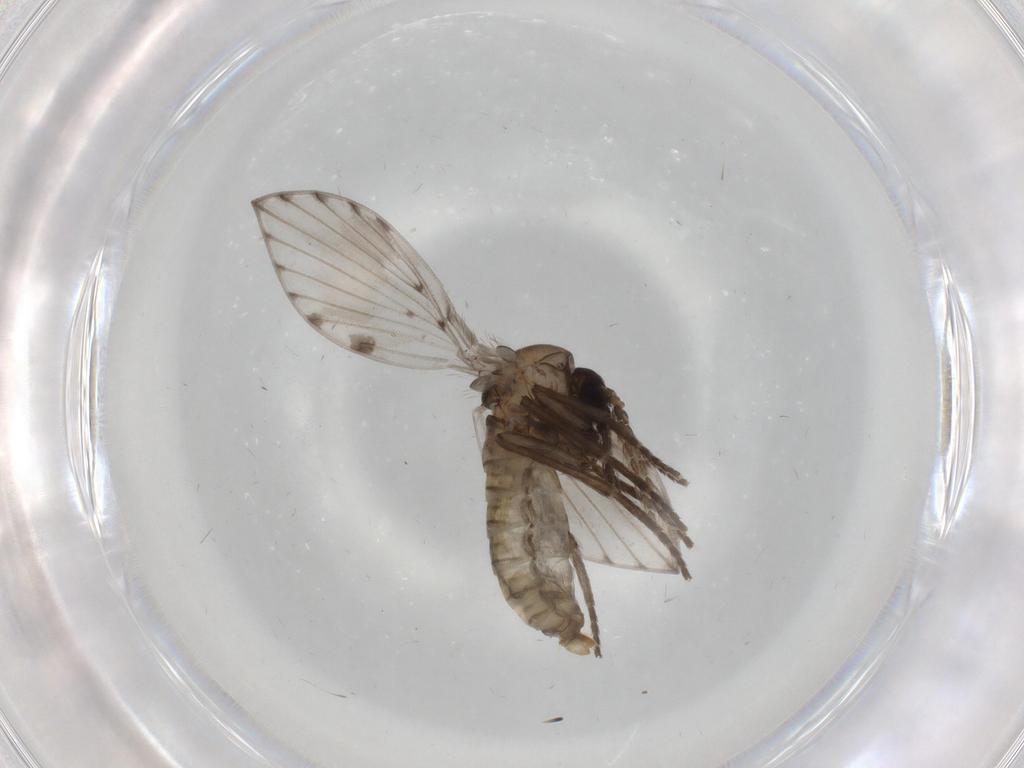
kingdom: Animalia
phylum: Arthropoda
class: Insecta
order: Diptera
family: Psychodidae
